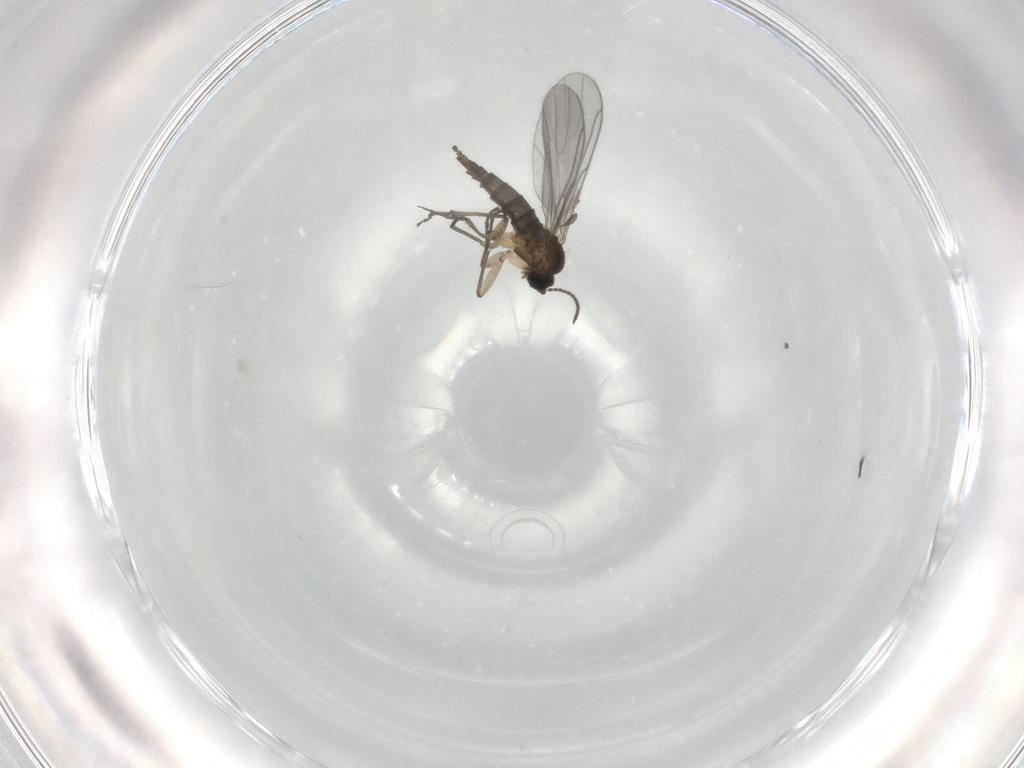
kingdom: Animalia
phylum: Arthropoda
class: Insecta
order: Diptera
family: Sciaridae
